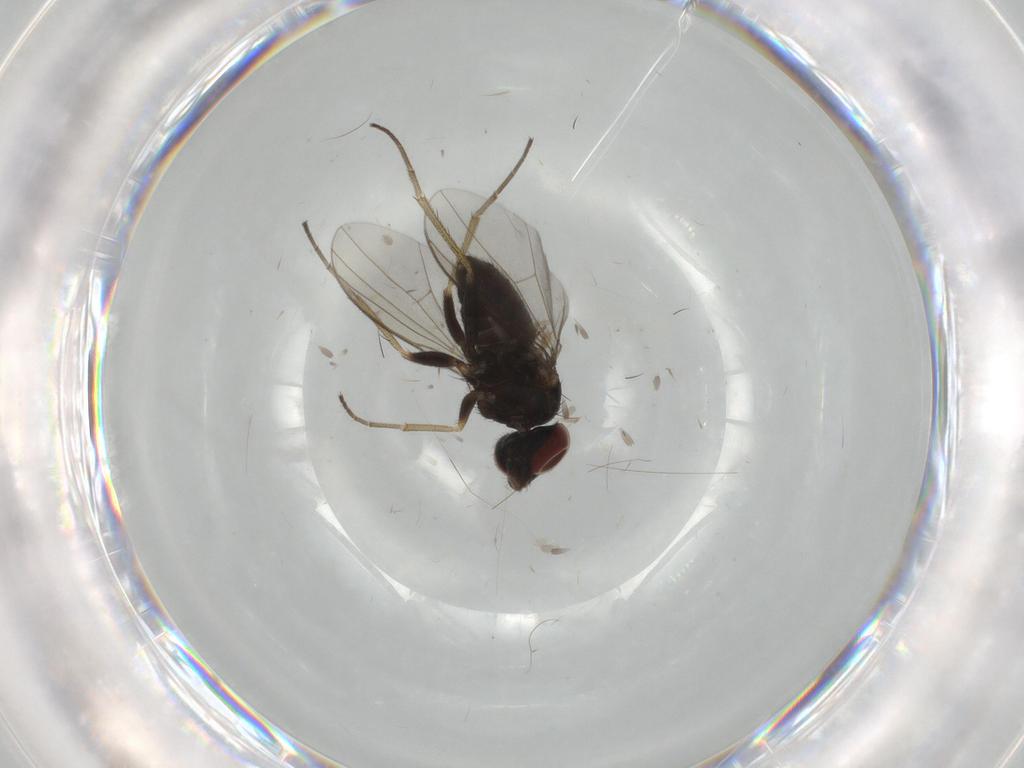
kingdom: Animalia
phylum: Arthropoda
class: Insecta
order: Diptera
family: Dolichopodidae
